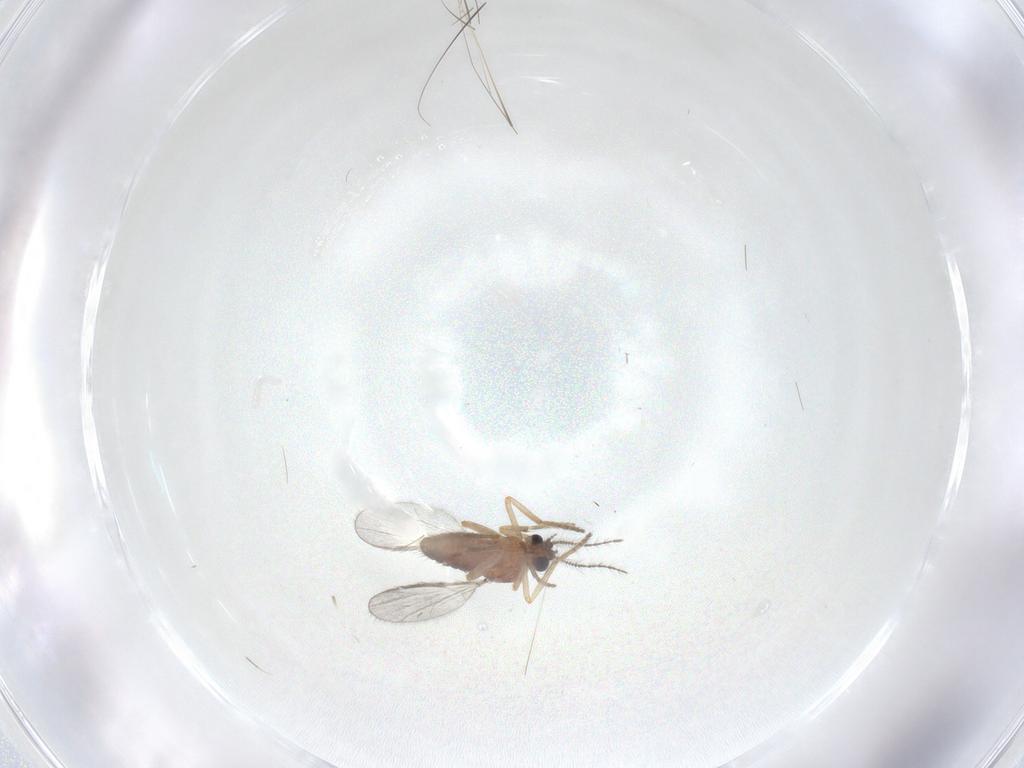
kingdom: Animalia
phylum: Arthropoda
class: Insecta
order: Diptera
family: Ceratopogonidae
